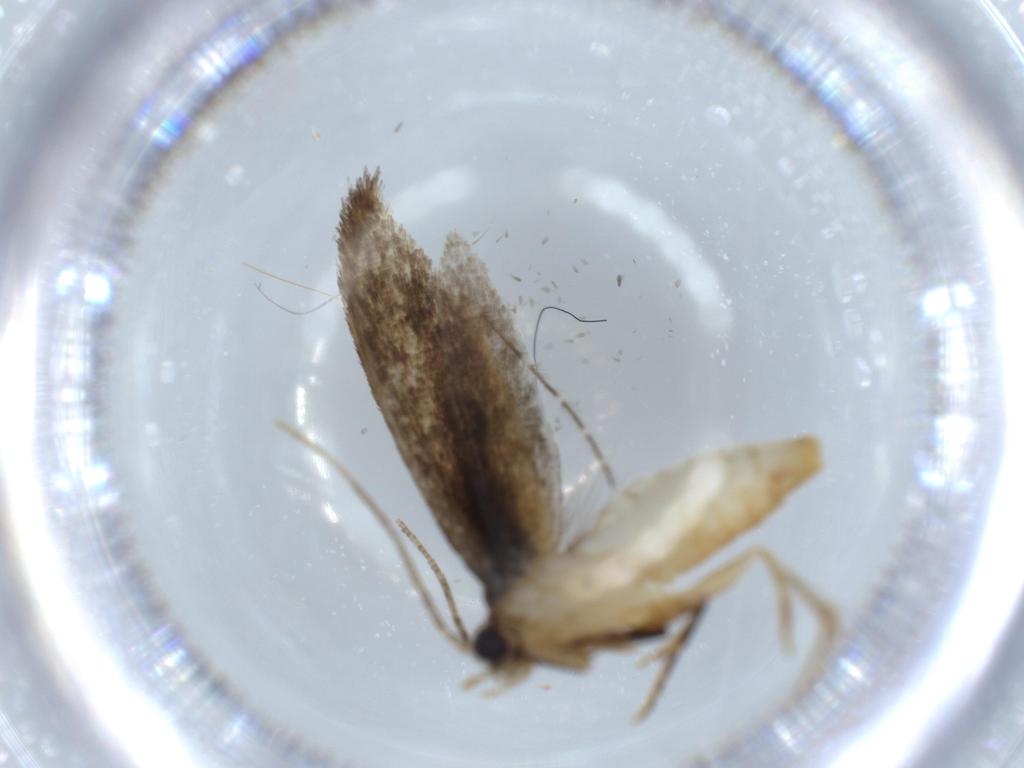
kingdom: Animalia
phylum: Arthropoda
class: Insecta
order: Lepidoptera
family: Tineidae
